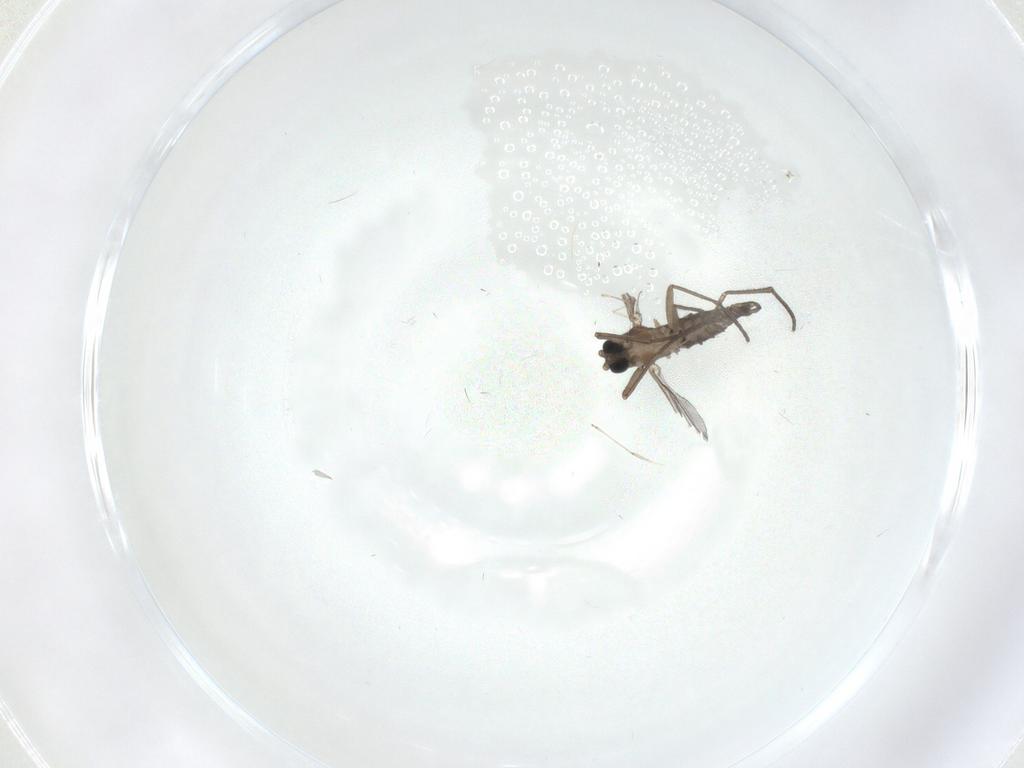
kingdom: Animalia
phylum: Arthropoda
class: Insecta
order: Diptera
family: Sciaridae
